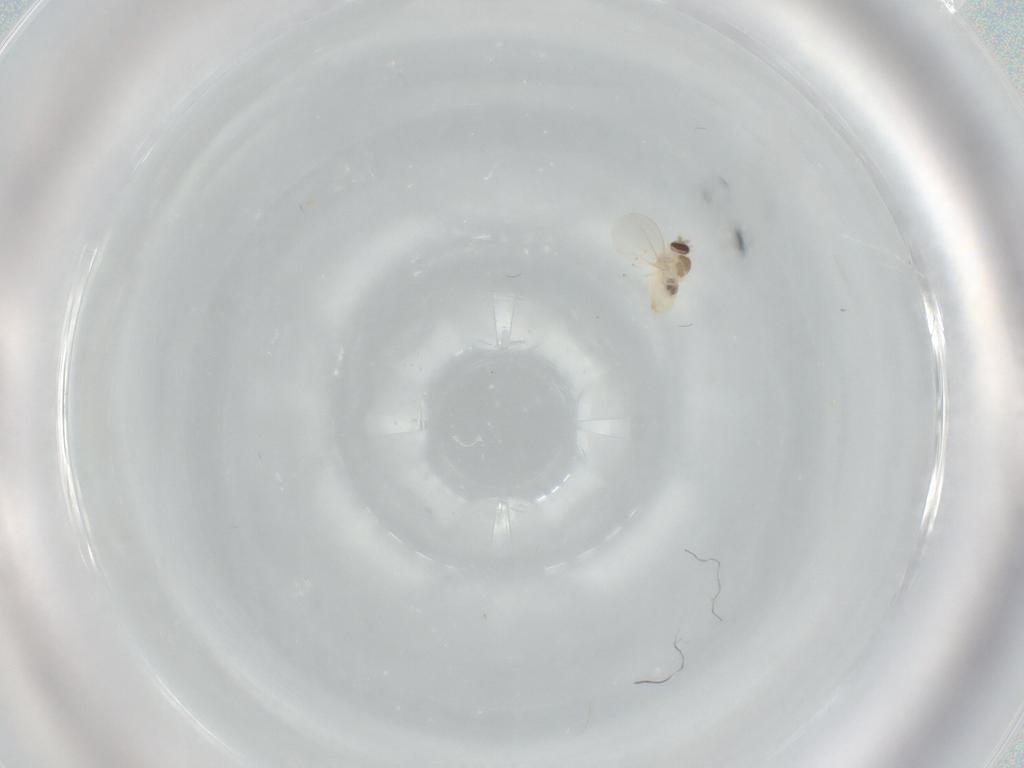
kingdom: Animalia
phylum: Arthropoda
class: Insecta
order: Diptera
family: Cecidomyiidae
